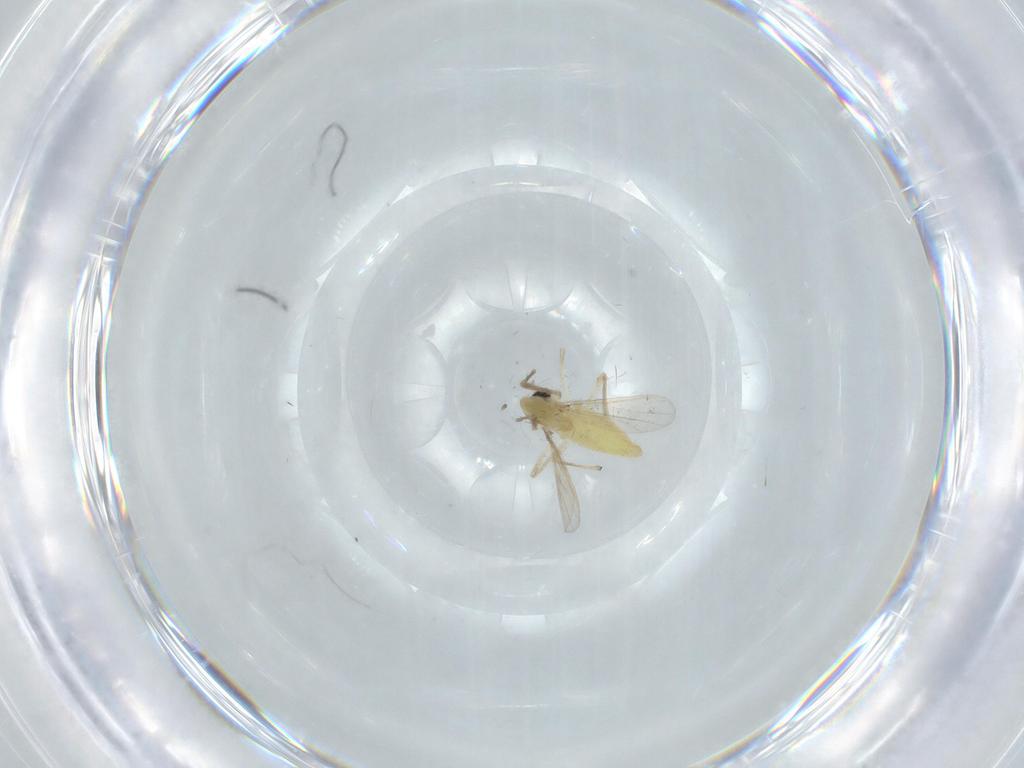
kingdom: Animalia
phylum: Arthropoda
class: Insecta
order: Diptera
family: Chironomidae
